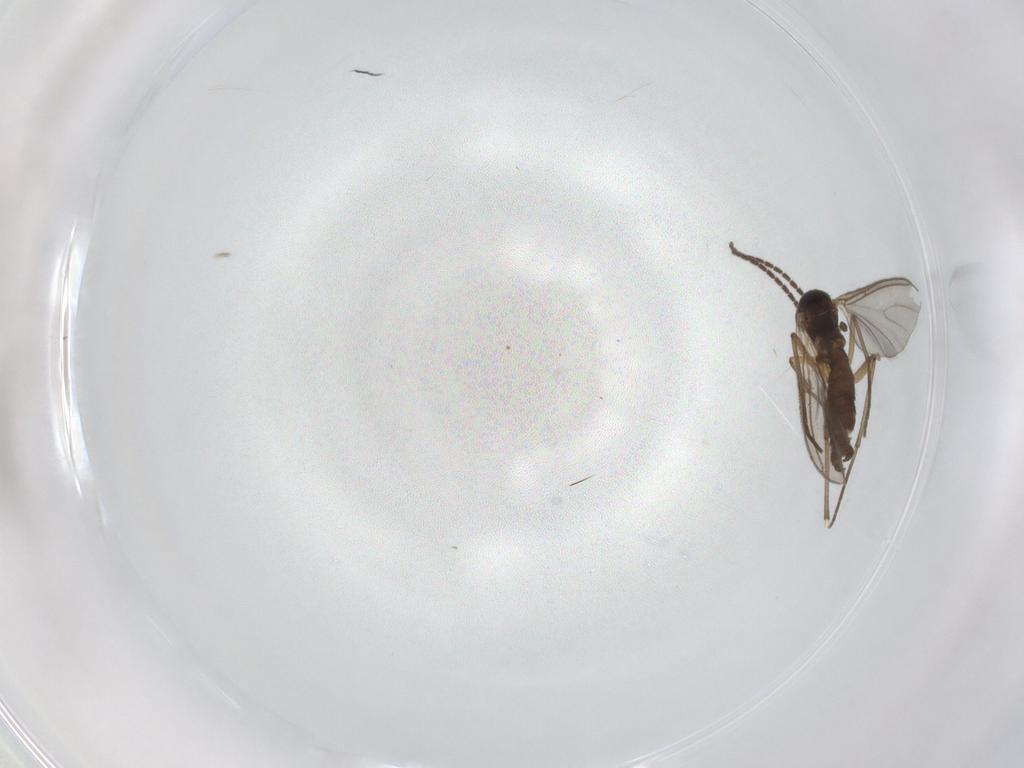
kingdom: Animalia
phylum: Arthropoda
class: Insecta
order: Diptera
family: Sciaridae
